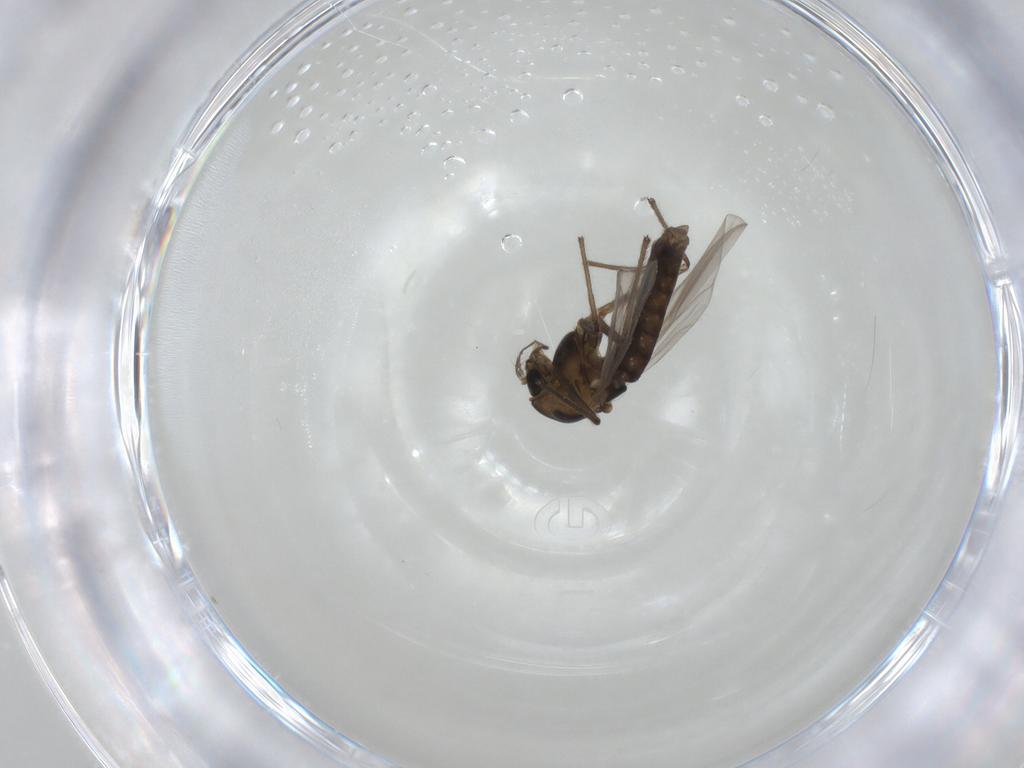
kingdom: Animalia
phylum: Arthropoda
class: Insecta
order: Diptera
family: Chironomidae
